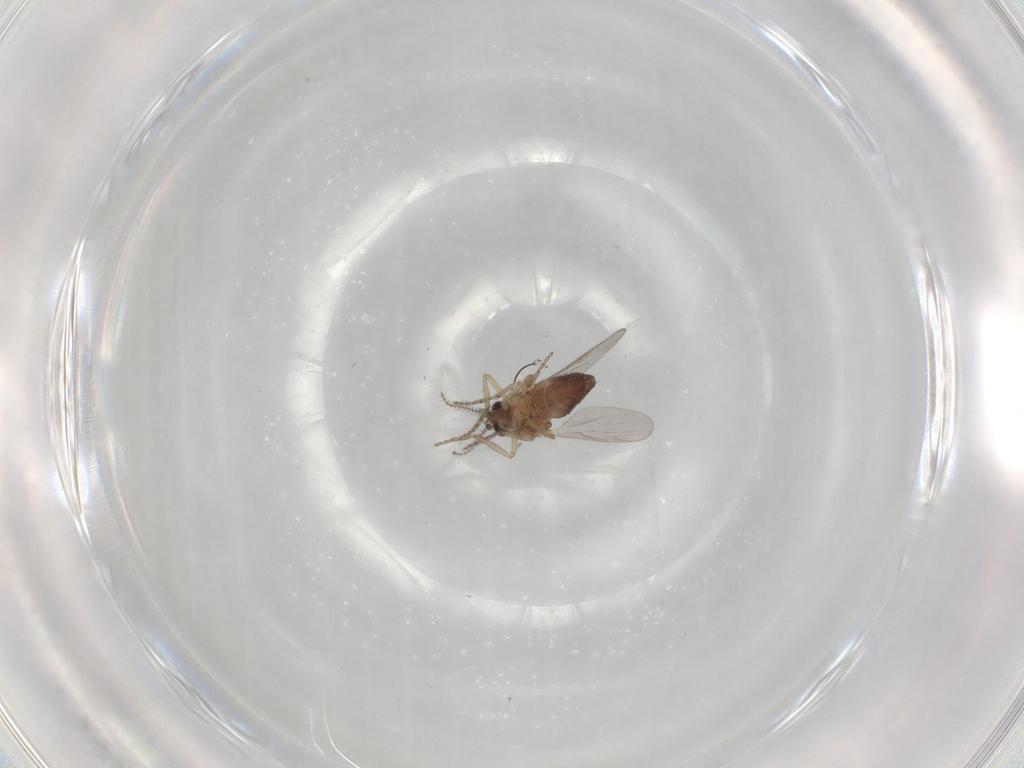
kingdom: Animalia
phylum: Arthropoda
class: Insecta
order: Diptera
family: Ceratopogonidae
